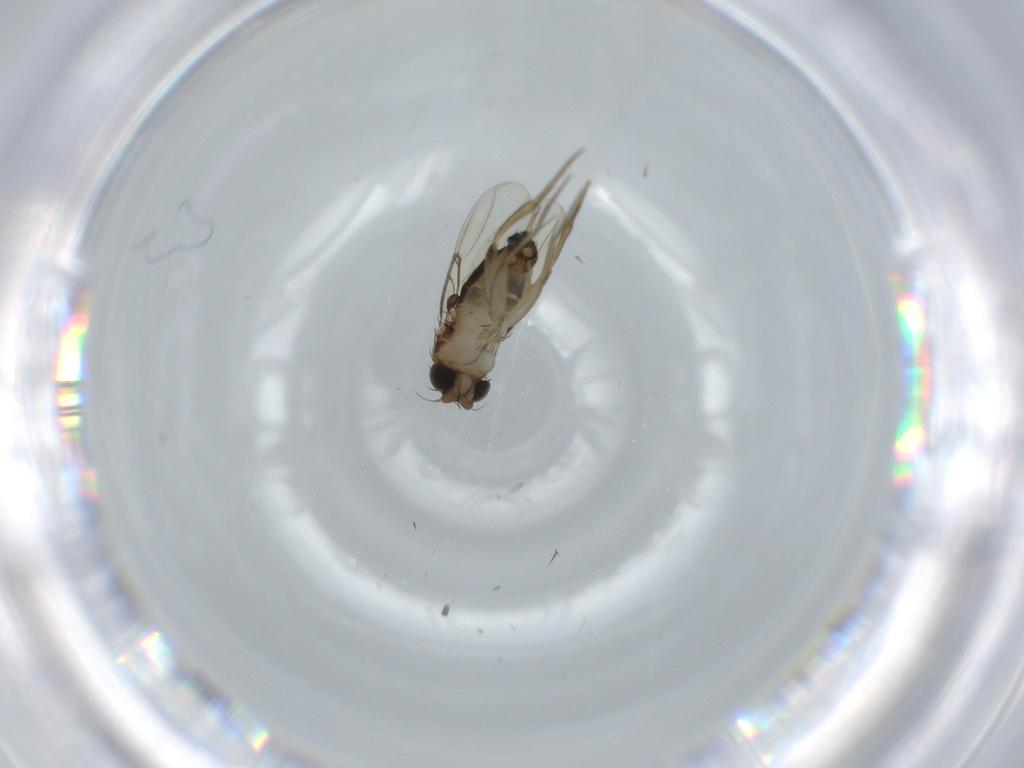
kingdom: Animalia
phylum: Arthropoda
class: Insecta
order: Diptera
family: Phoridae
